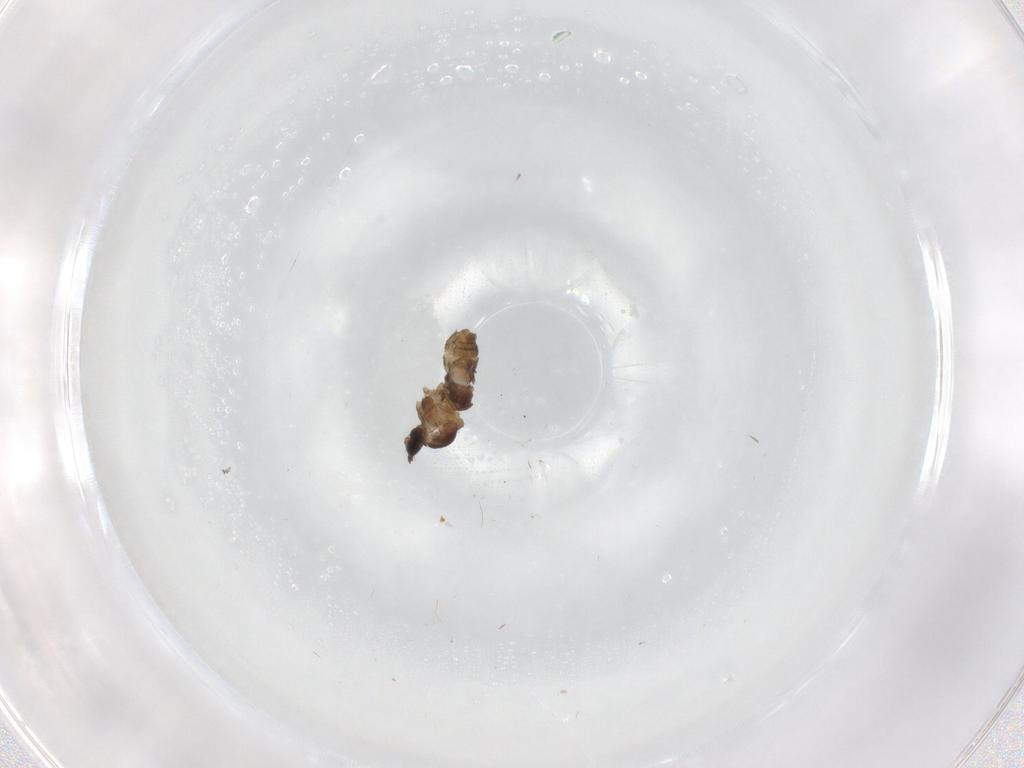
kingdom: Animalia
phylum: Arthropoda
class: Insecta
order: Diptera
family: Cecidomyiidae
